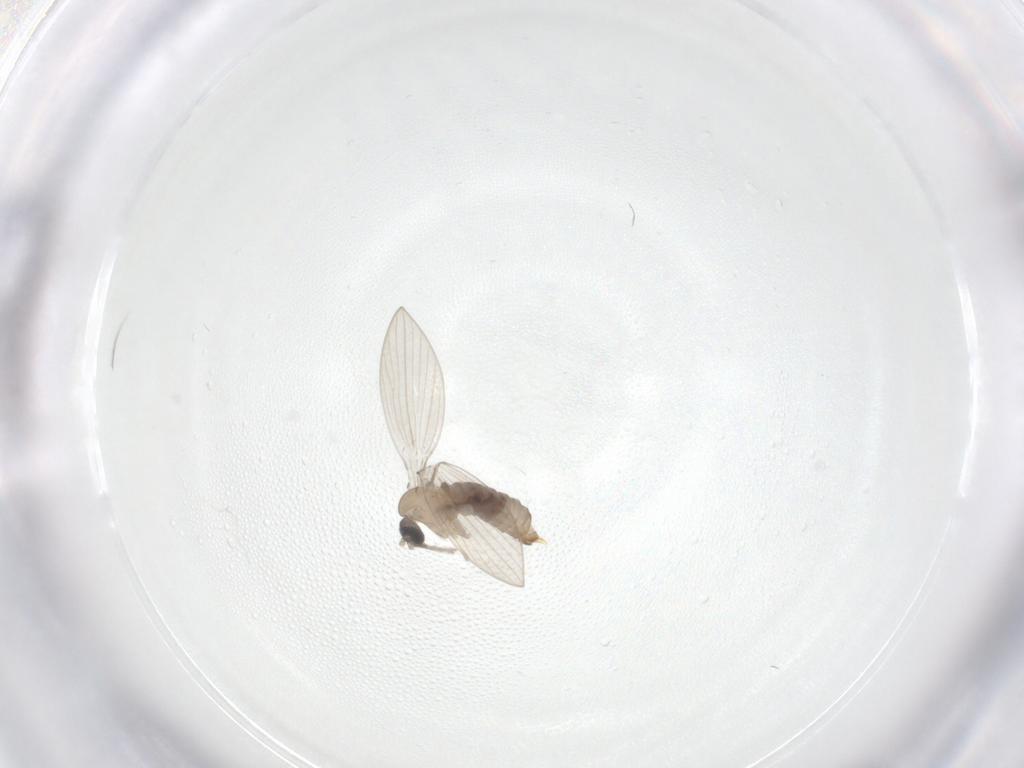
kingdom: Animalia
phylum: Arthropoda
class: Insecta
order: Diptera
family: Psychodidae
